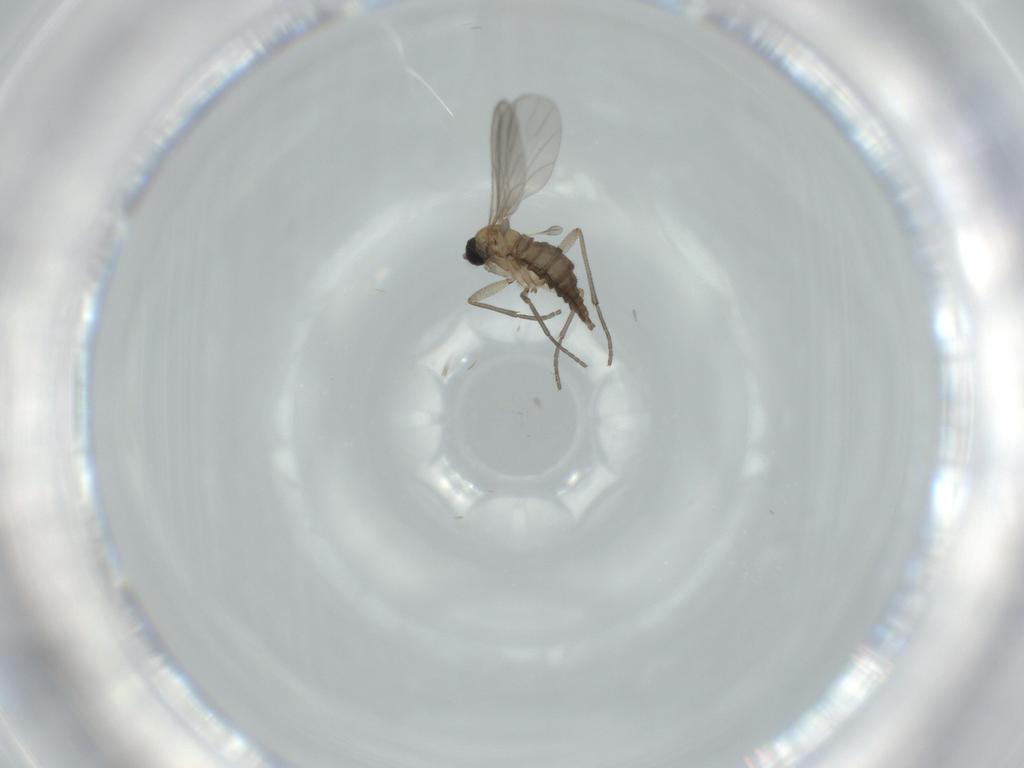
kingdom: Animalia
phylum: Arthropoda
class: Insecta
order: Diptera
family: Sciaridae
